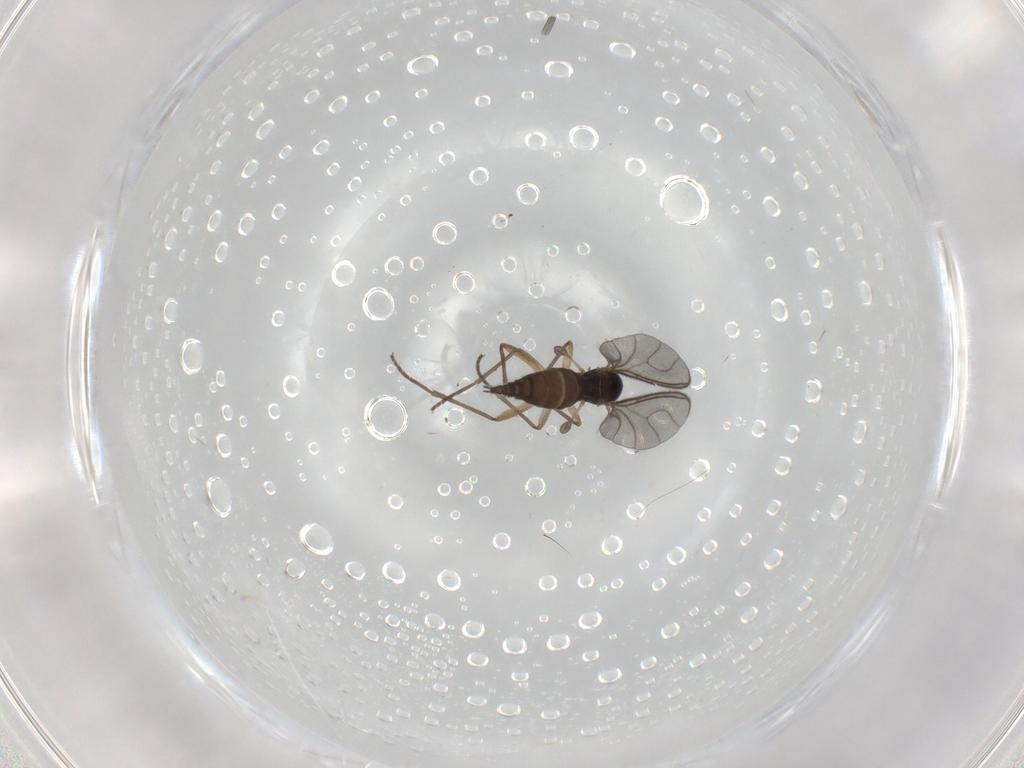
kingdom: Animalia
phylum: Arthropoda
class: Insecta
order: Diptera
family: Sciaridae
